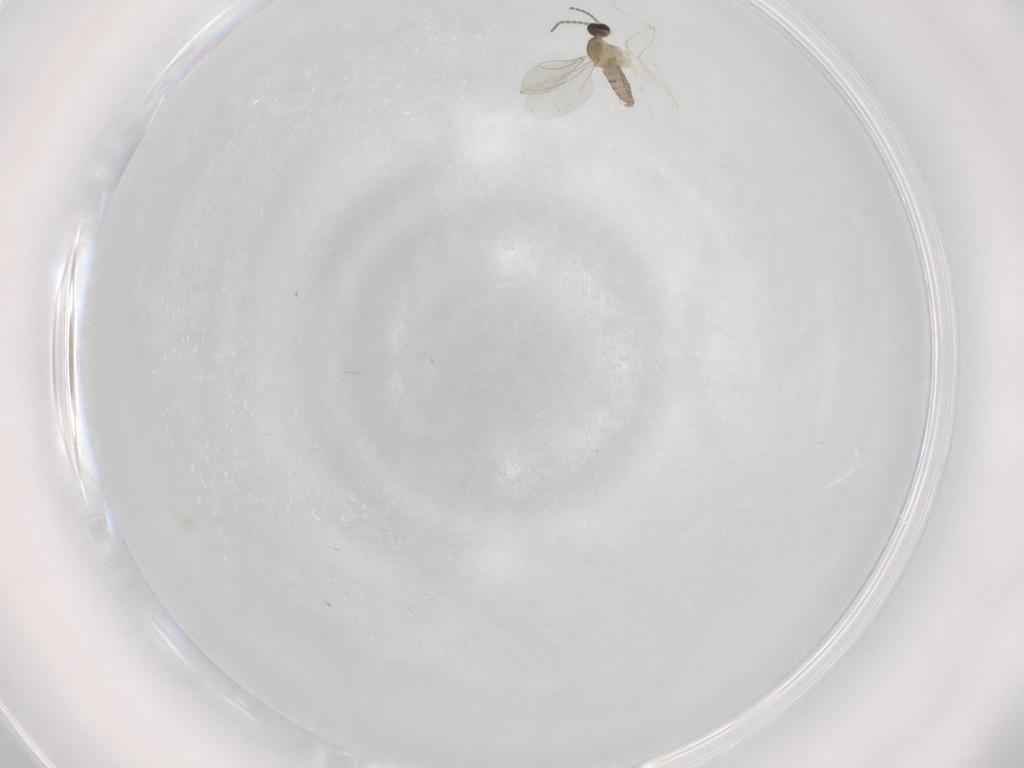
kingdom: Animalia
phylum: Arthropoda
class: Insecta
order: Diptera
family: Cecidomyiidae
